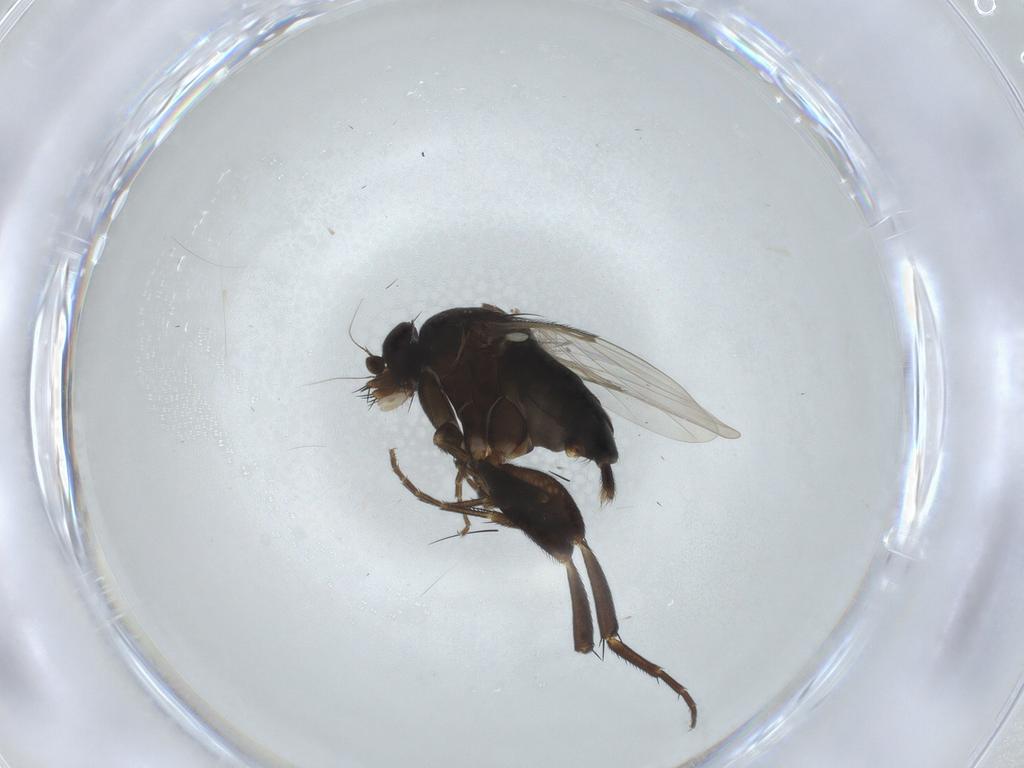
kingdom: Animalia
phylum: Arthropoda
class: Insecta
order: Diptera
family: Phoridae
